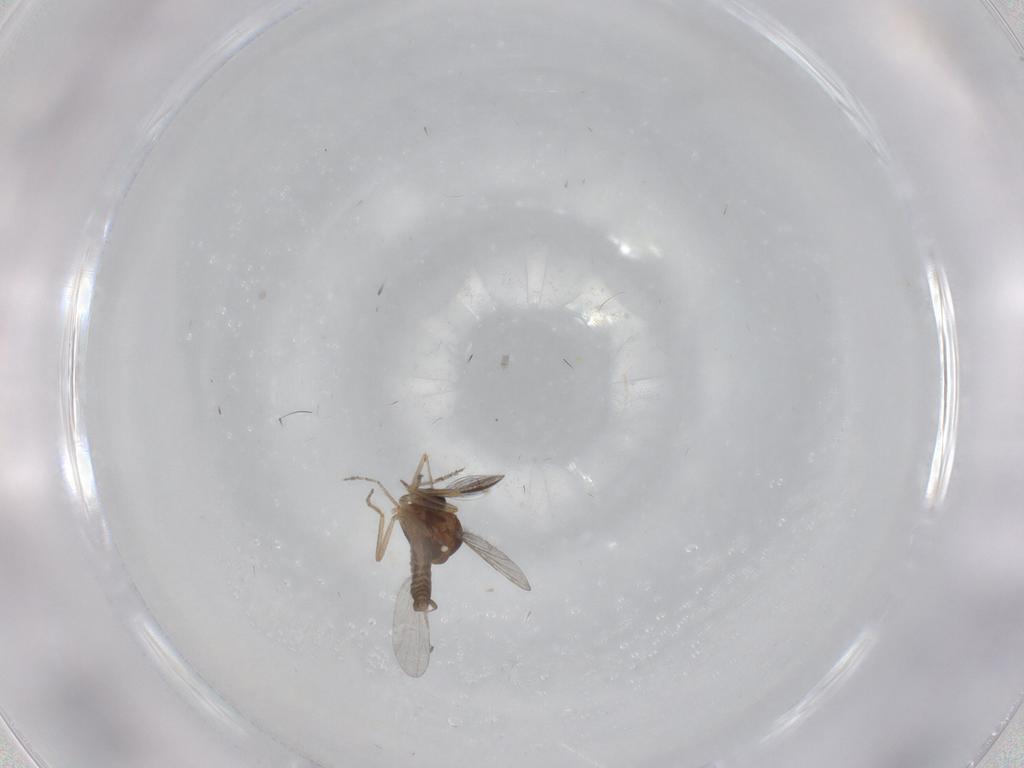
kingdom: Animalia
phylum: Arthropoda
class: Insecta
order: Diptera
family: Ceratopogonidae
